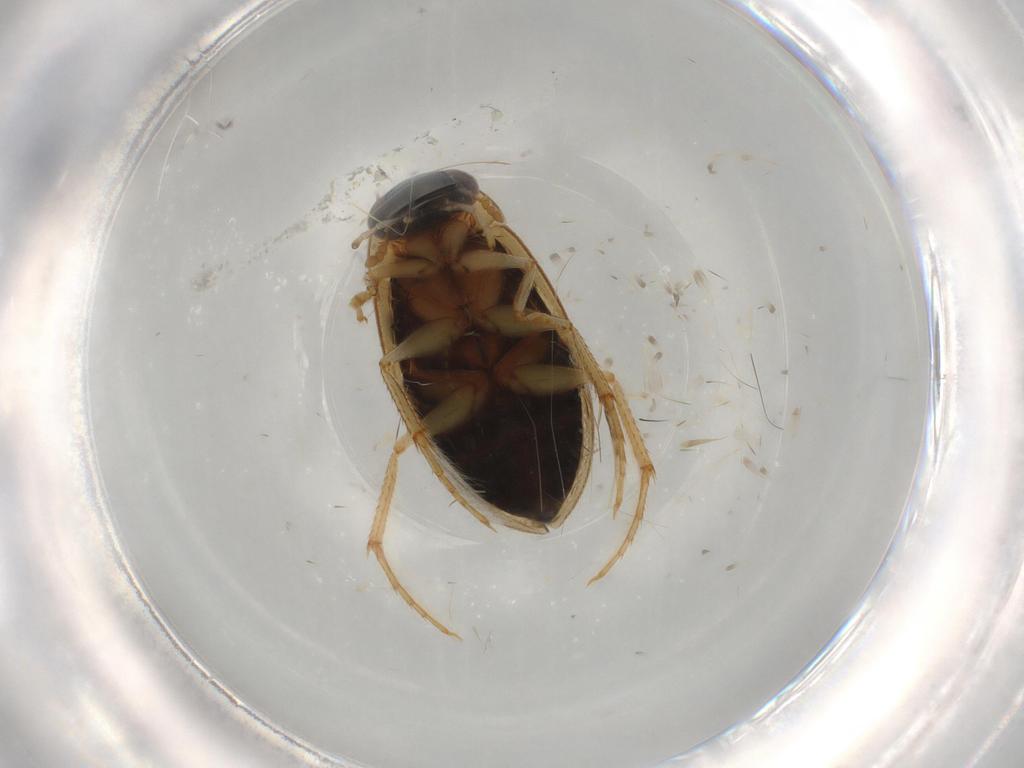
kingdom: Animalia
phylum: Arthropoda
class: Insecta
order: Coleoptera
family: Hydrophilidae
